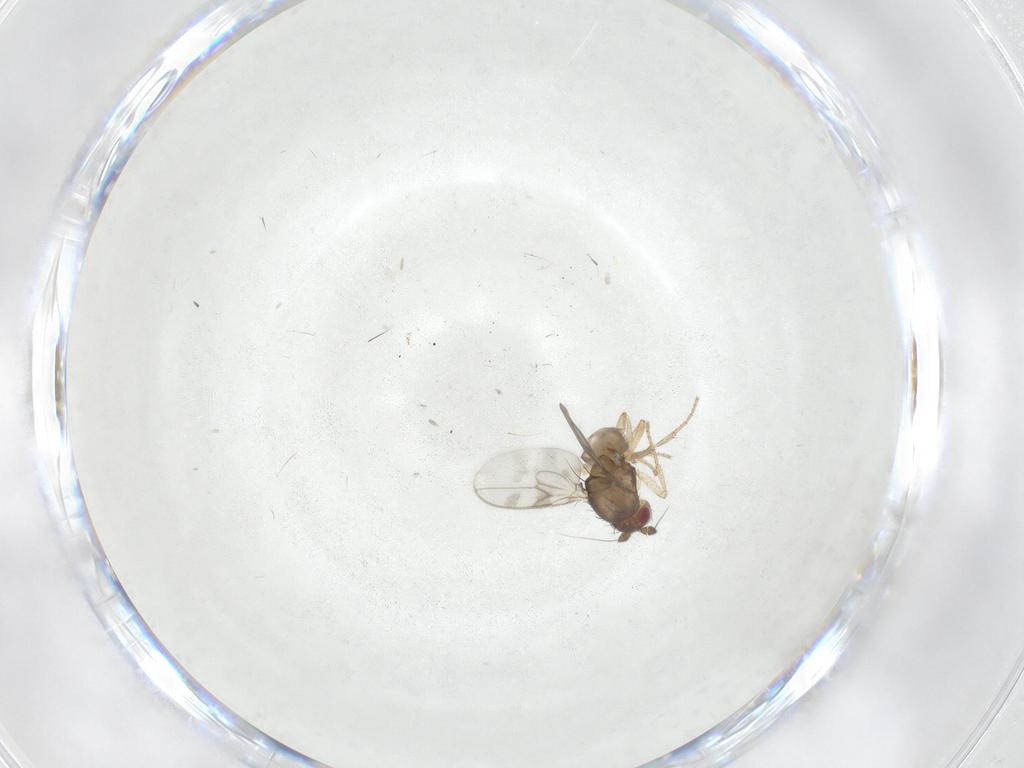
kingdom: Animalia
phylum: Arthropoda
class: Insecta
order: Diptera
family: Sphaeroceridae
